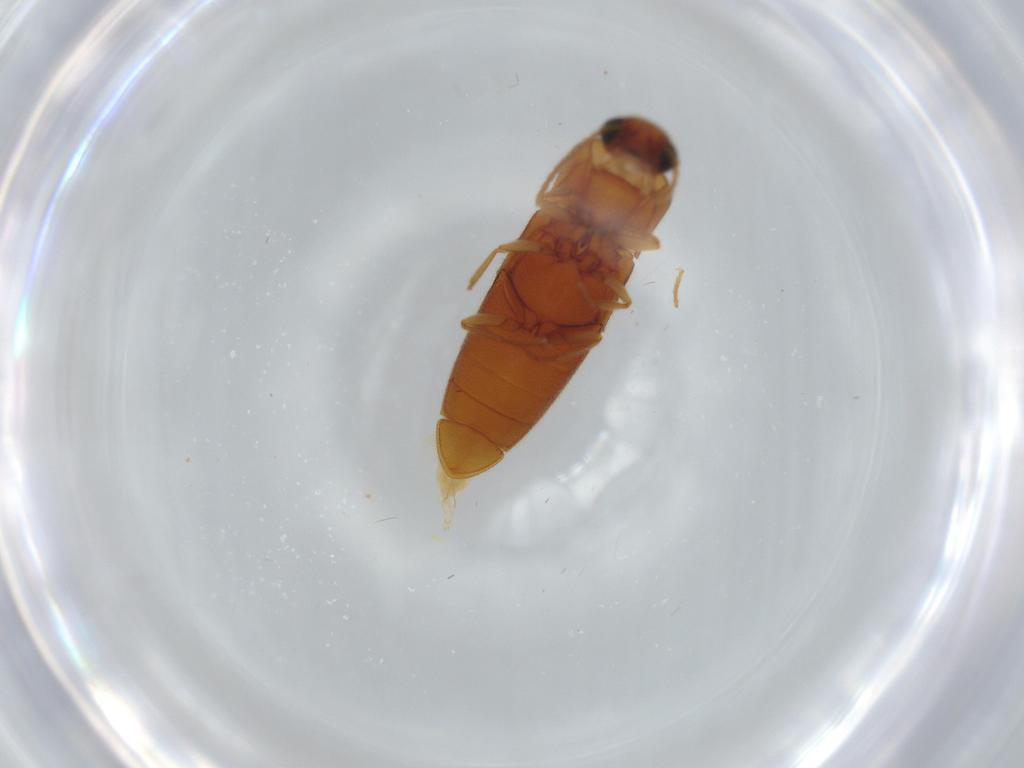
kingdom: Animalia
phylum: Arthropoda
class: Insecta
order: Coleoptera
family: Elateridae
